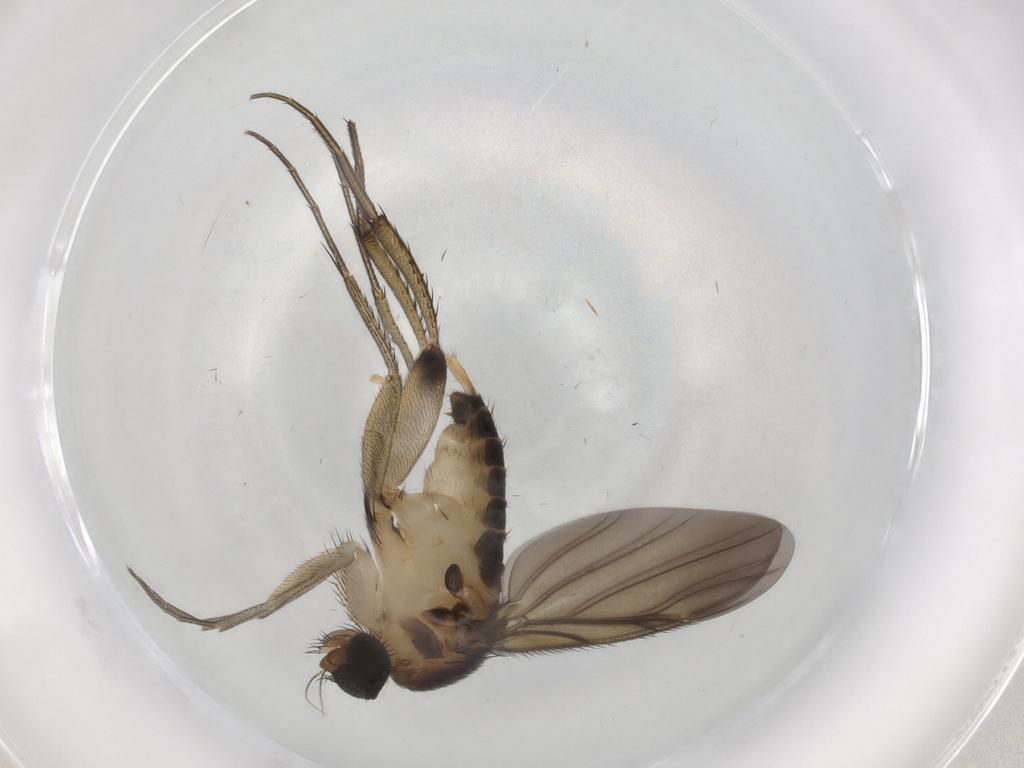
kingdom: Animalia
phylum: Arthropoda
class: Insecta
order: Diptera
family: Phoridae
